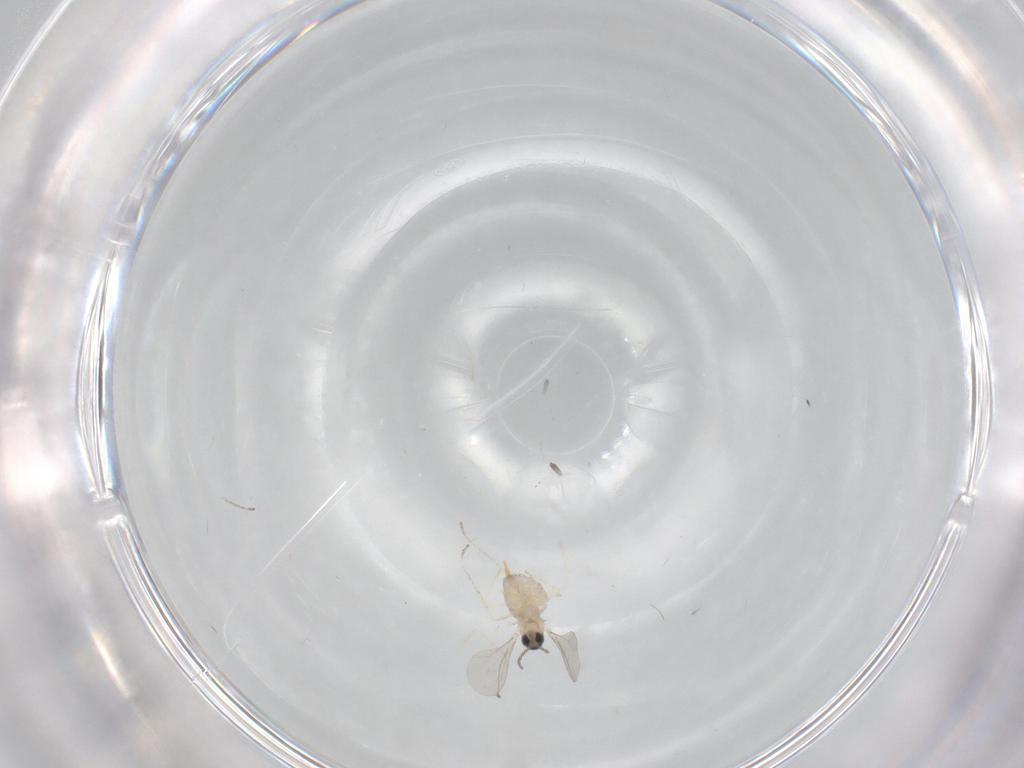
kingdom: Animalia
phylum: Arthropoda
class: Insecta
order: Diptera
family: Cecidomyiidae
